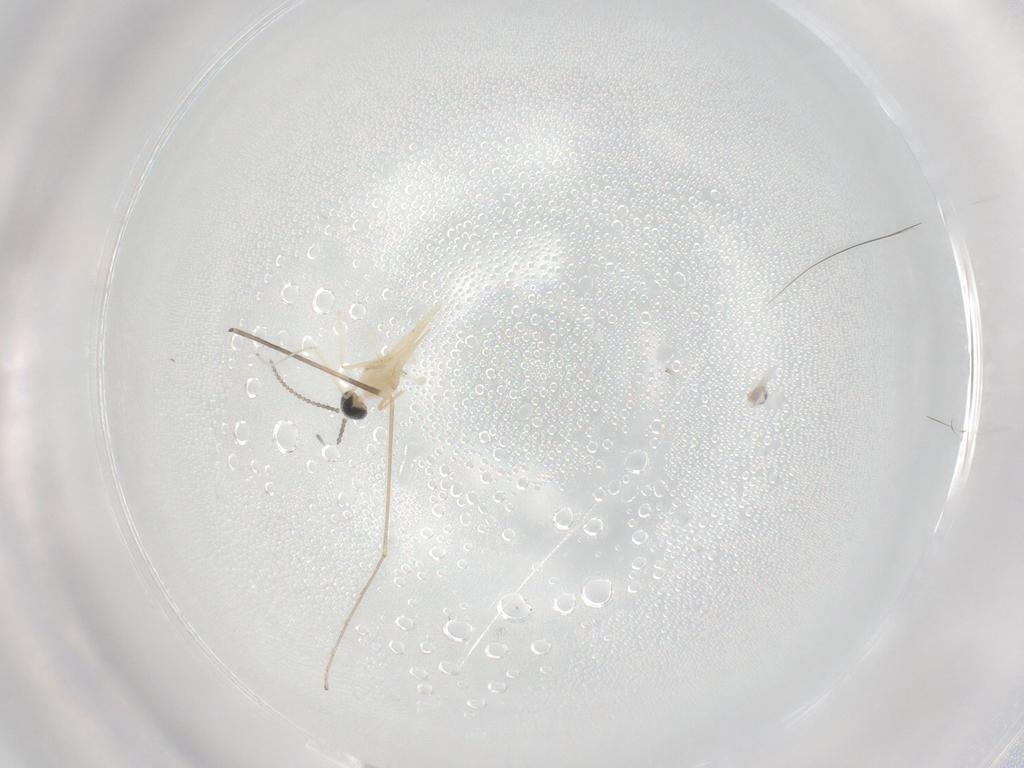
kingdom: Animalia
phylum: Arthropoda
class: Insecta
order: Diptera
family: Limoniidae
